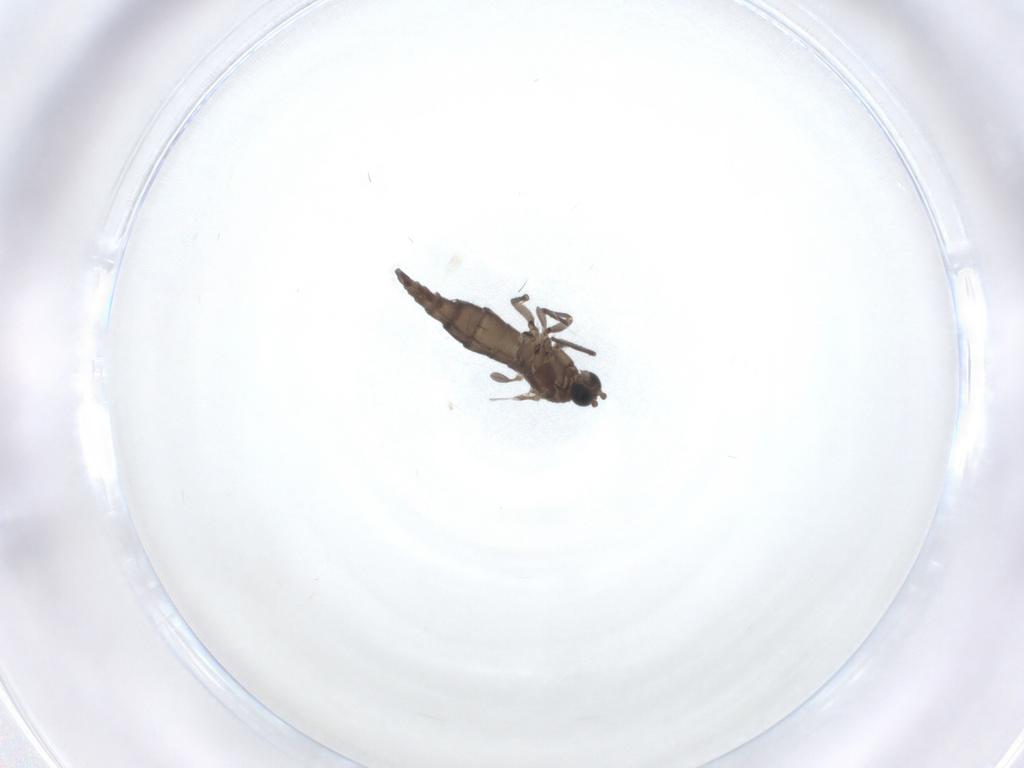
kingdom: Animalia
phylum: Arthropoda
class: Insecta
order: Diptera
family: Sciaridae
